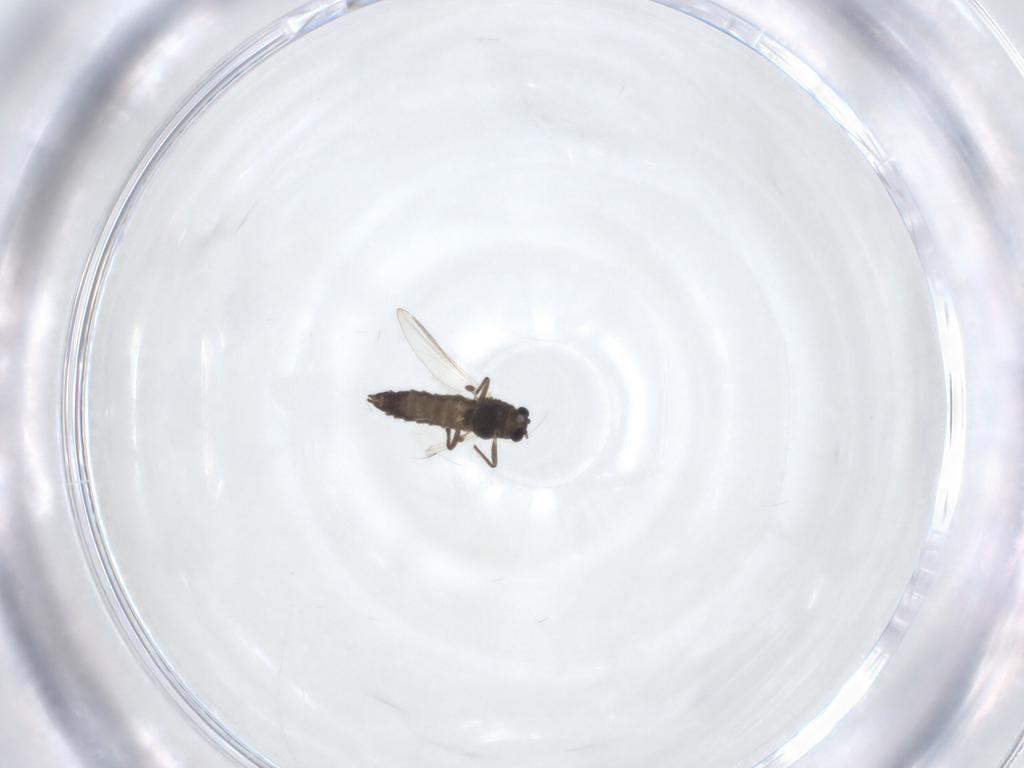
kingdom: Animalia
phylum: Arthropoda
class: Insecta
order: Diptera
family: Chironomidae
